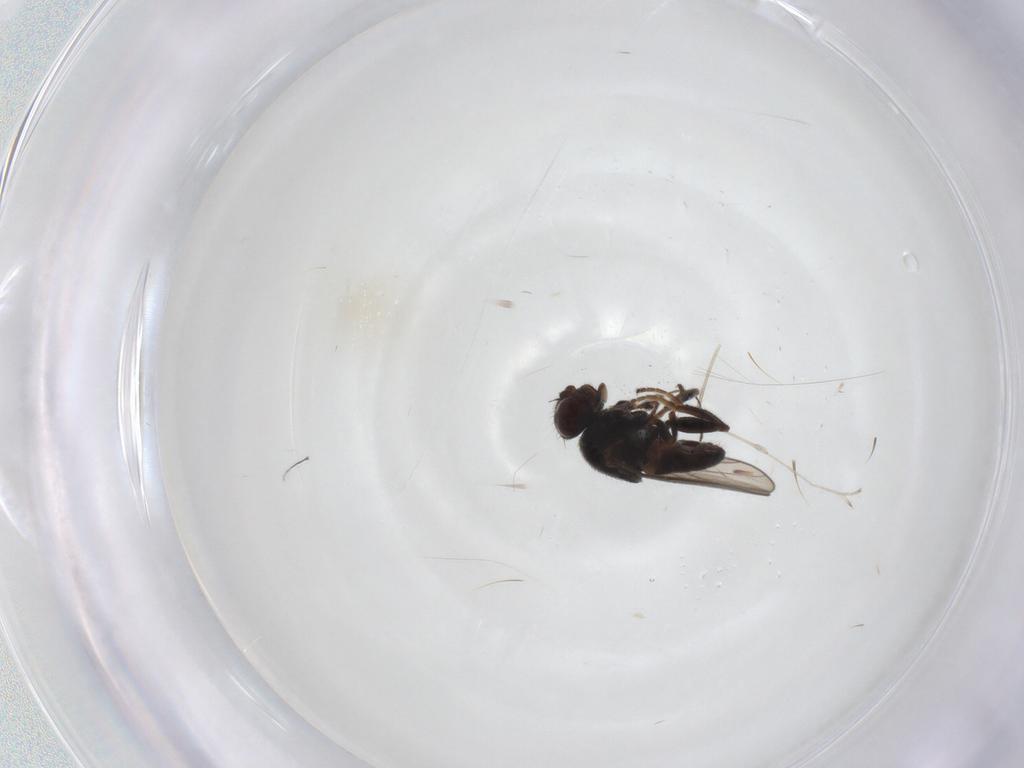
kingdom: Animalia
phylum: Arthropoda
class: Insecta
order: Diptera
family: Chloropidae
